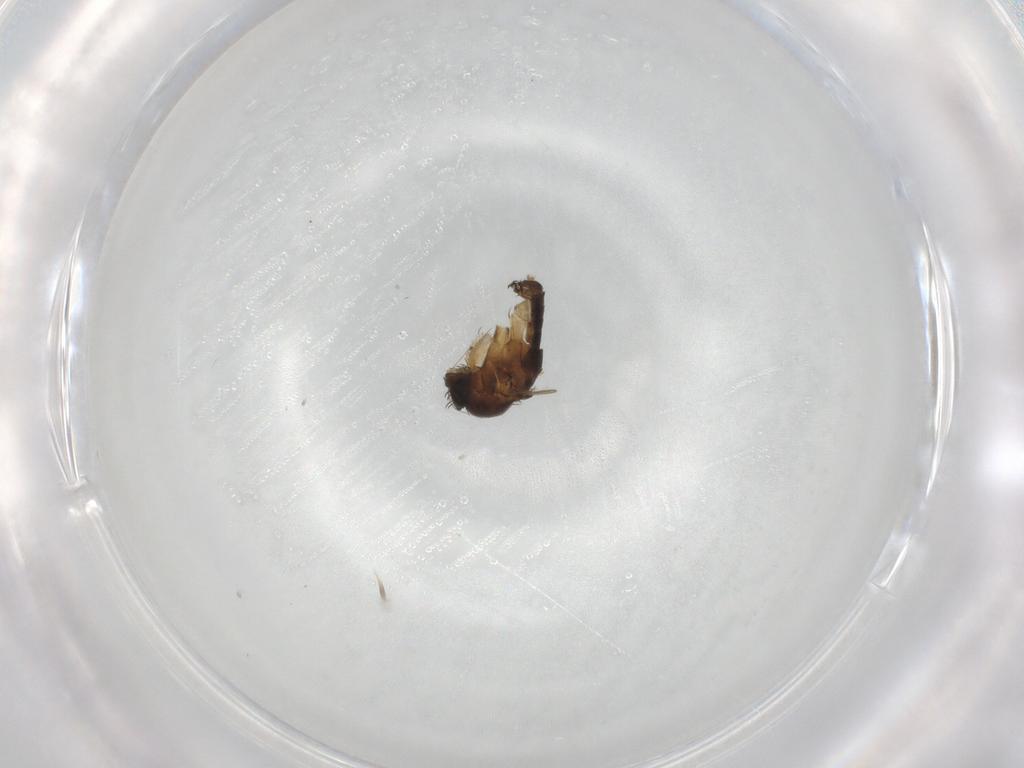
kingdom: Animalia
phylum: Arthropoda
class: Insecta
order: Diptera
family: Phoridae
